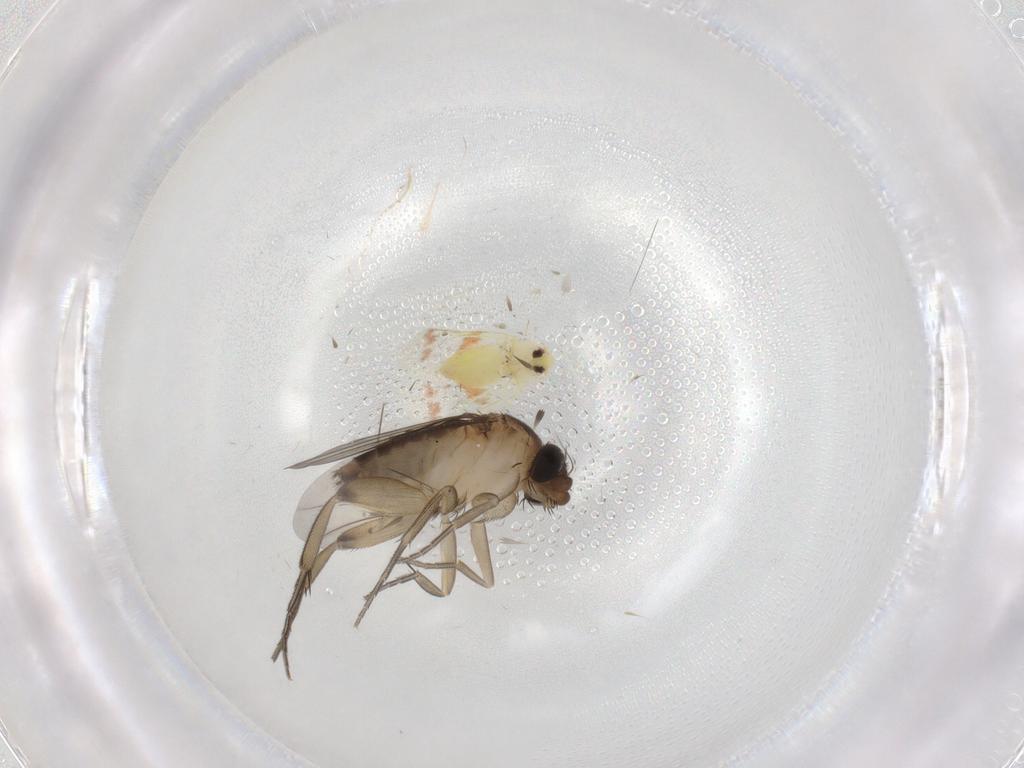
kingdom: Animalia
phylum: Arthropoda
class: Insecta
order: Diptera
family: Phoridae
